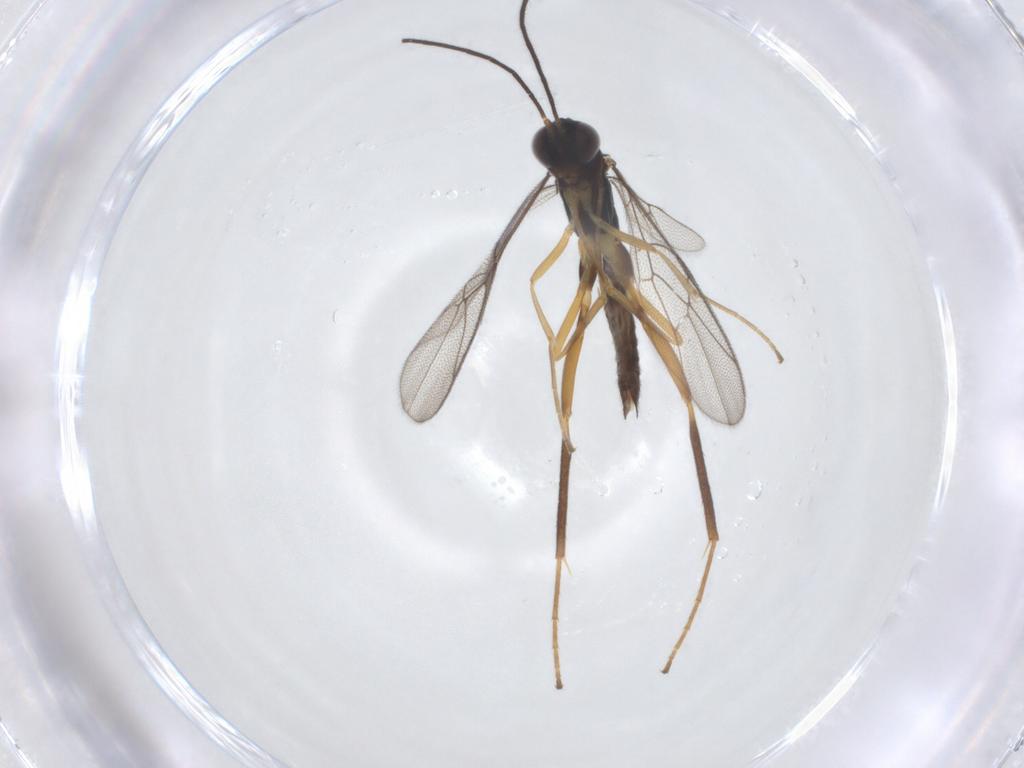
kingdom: Animalia
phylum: Arthropoda
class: Insecta
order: Hymenoptera
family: Ichneumonidae
